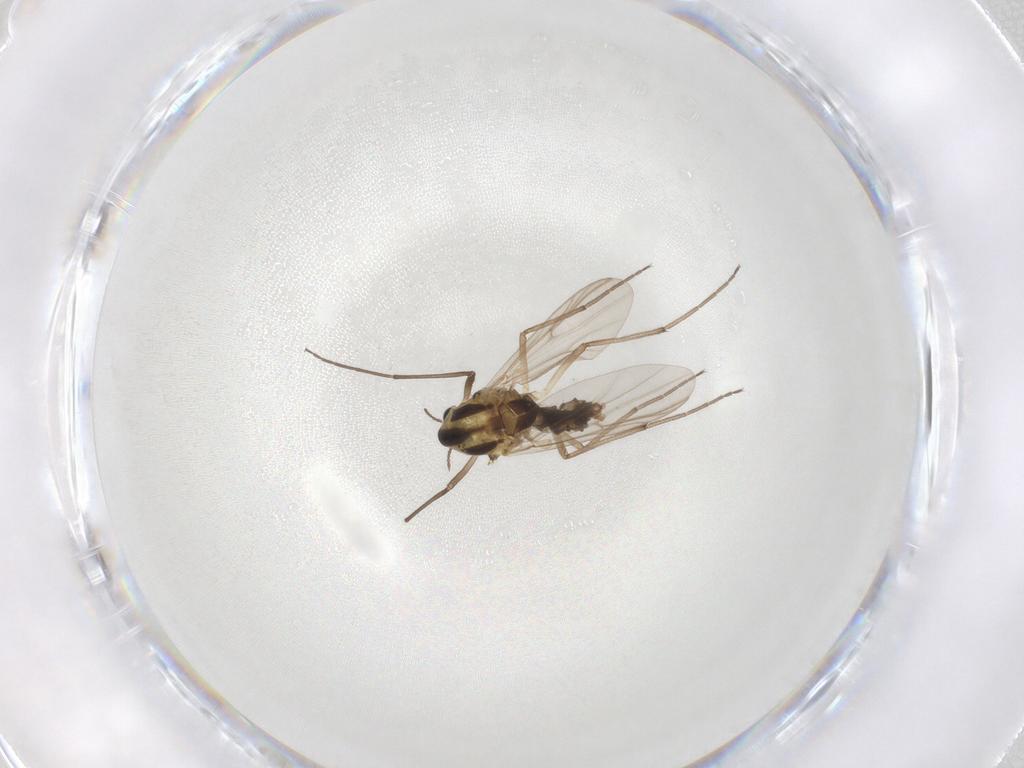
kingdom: Animalia
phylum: Arthropoda
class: Insecta
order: Diptera
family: Chironomidae
